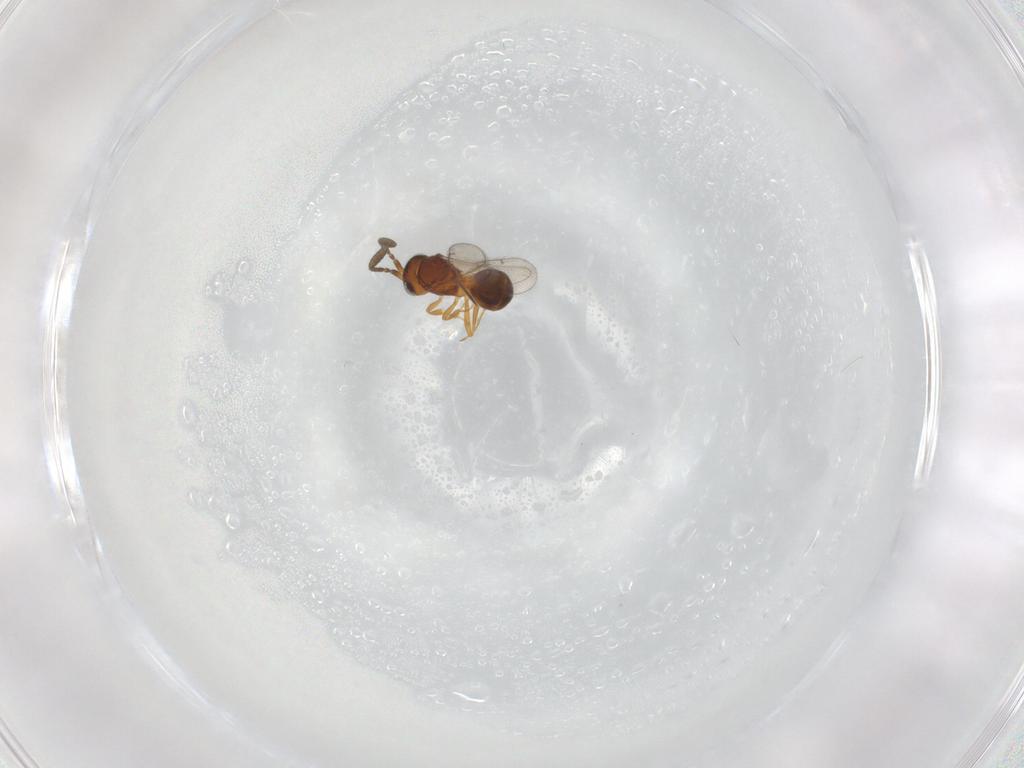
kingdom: Animalia
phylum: Arthropoda
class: Insecta
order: Hymenoptera
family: Scelionidae
